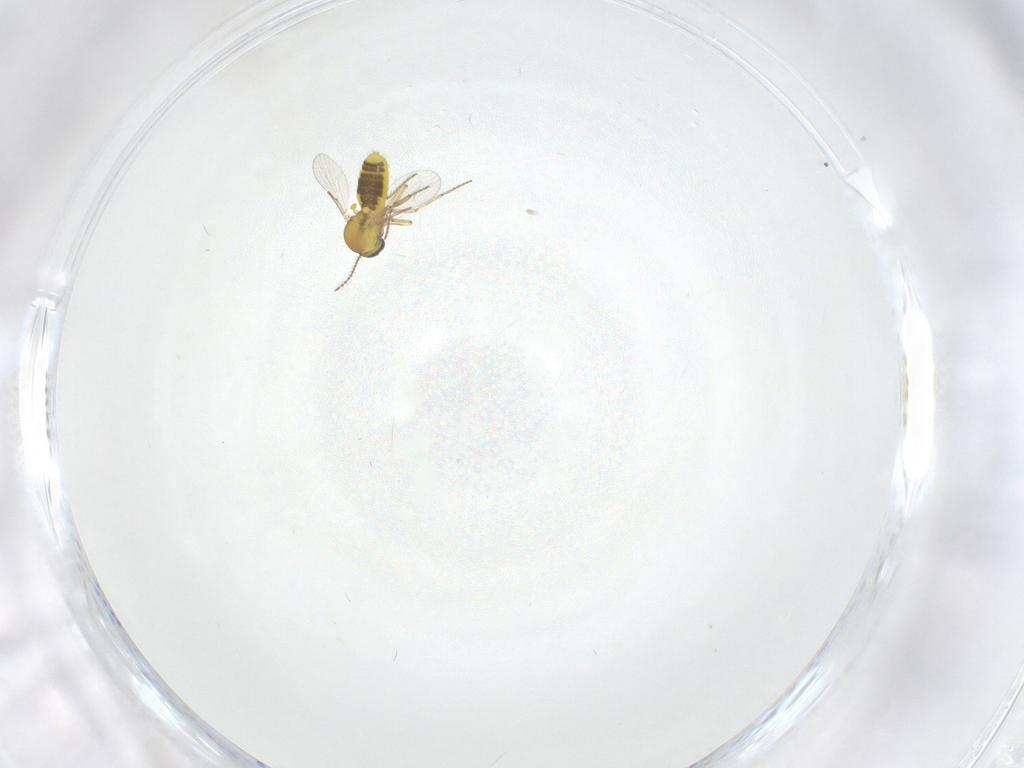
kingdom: Animalia
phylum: Arthropoda
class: Insecta
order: Diptera
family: Ceratopogonidae
